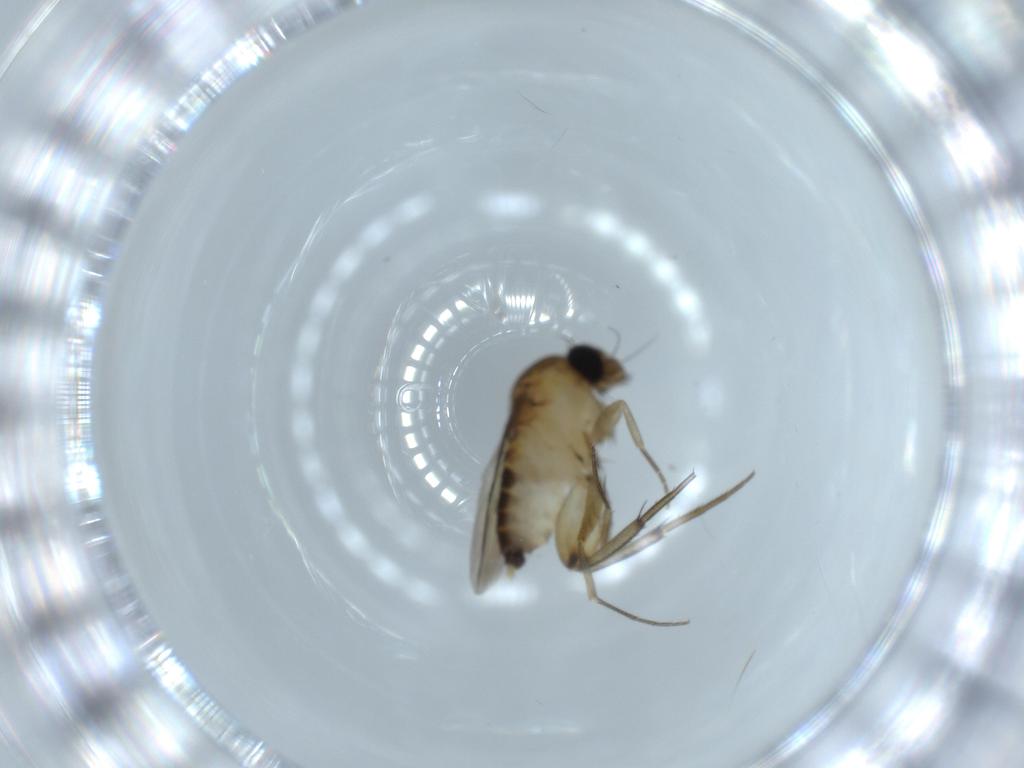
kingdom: Animalia
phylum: Arthropoda
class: Insecta
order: Diptera
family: Phoridae
